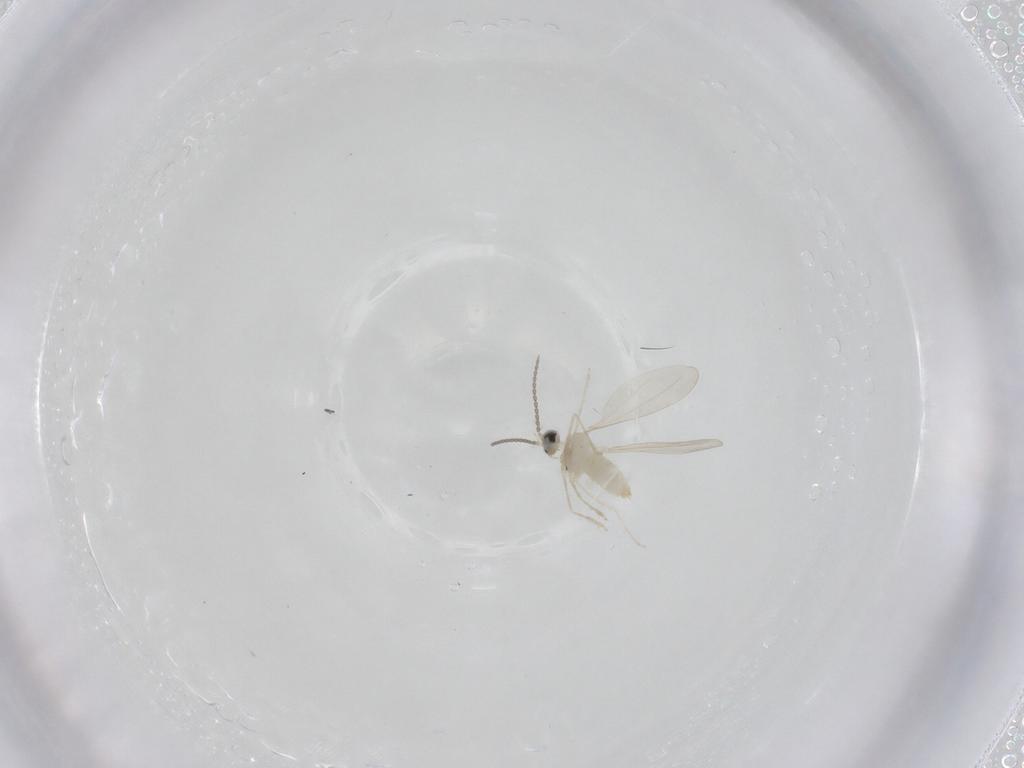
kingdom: Animalia
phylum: Arthropoda
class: Insecta
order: Diptera
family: Cecidomyiidae
